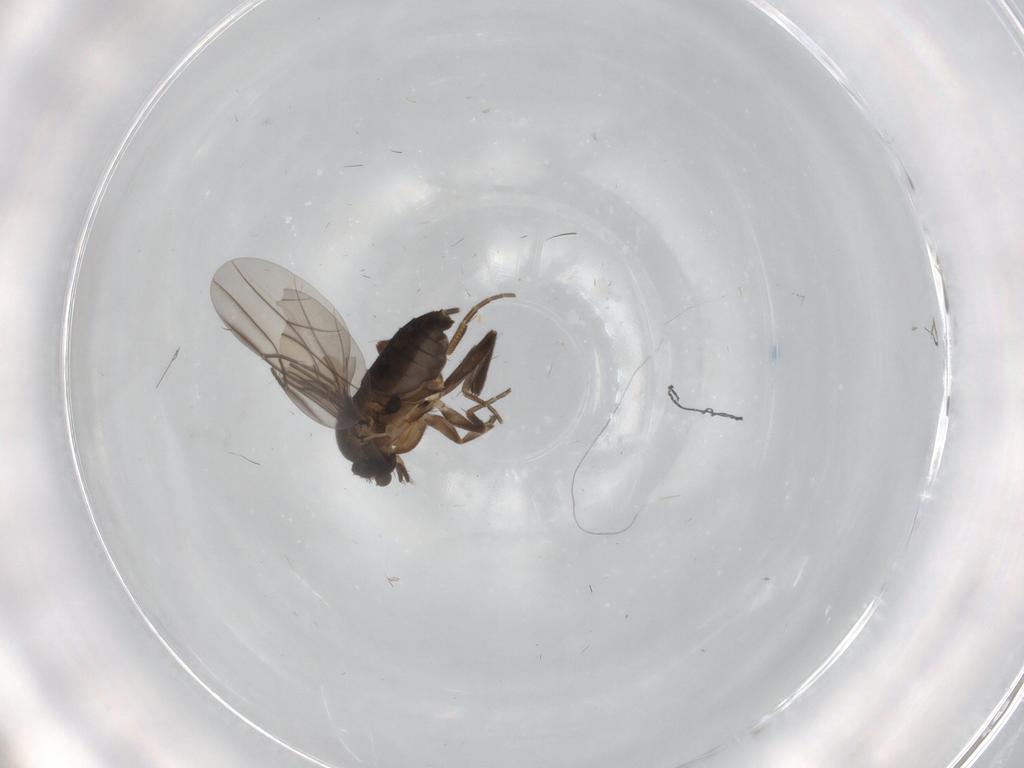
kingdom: Animalia
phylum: Arthropoda
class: Insecta
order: Diptera
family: Phoridae
